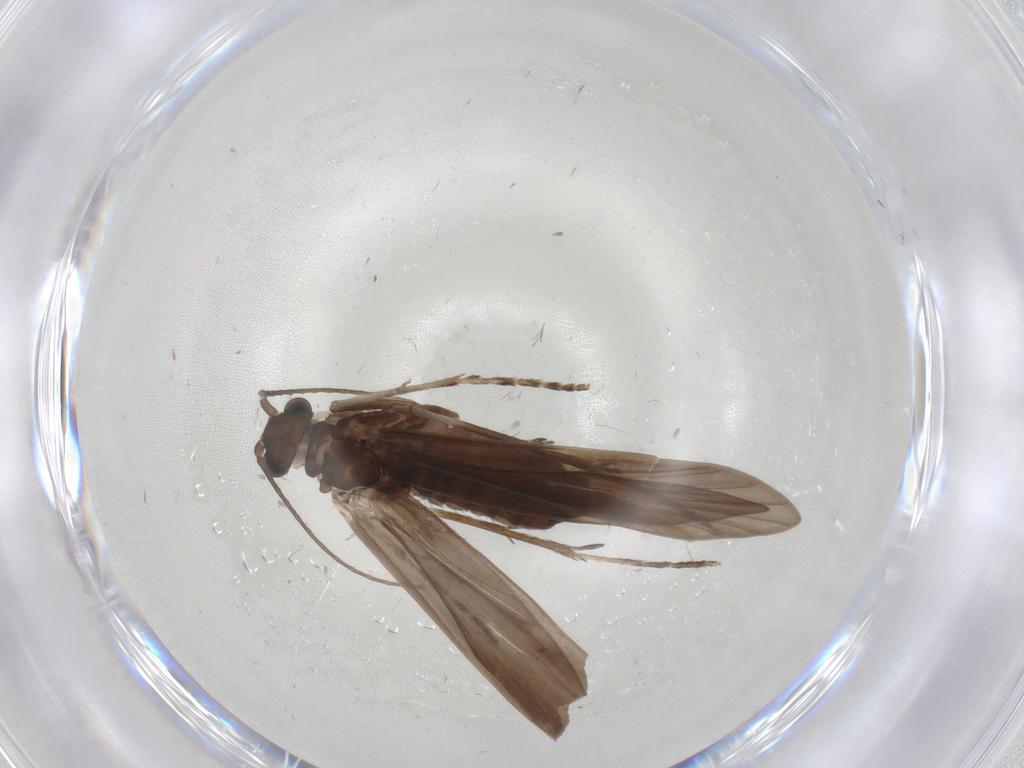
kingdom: Animalia
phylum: Arthropoda
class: Insecta
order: Trichoptera
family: Xiphocentronidae
